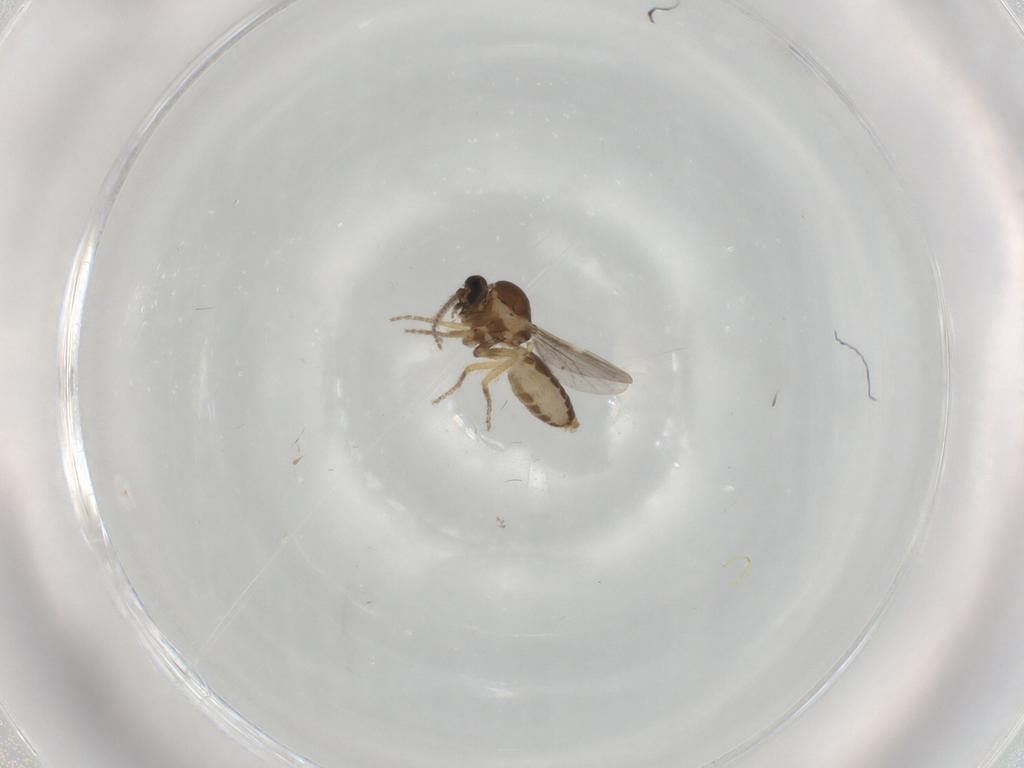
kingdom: Animalia
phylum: Arthropoda
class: Insecta
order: Diptera
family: Ceratopogonidae
